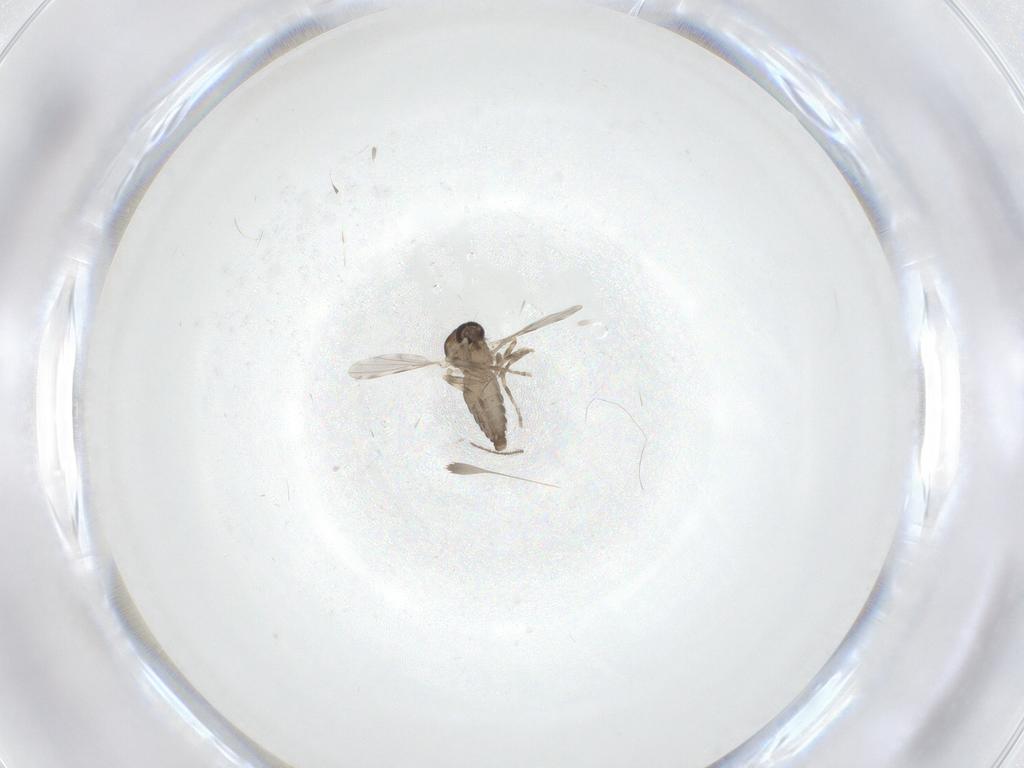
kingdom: Animalia
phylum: Arthropoda
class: Insecta
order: Diptera
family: Ceratopogonidae
